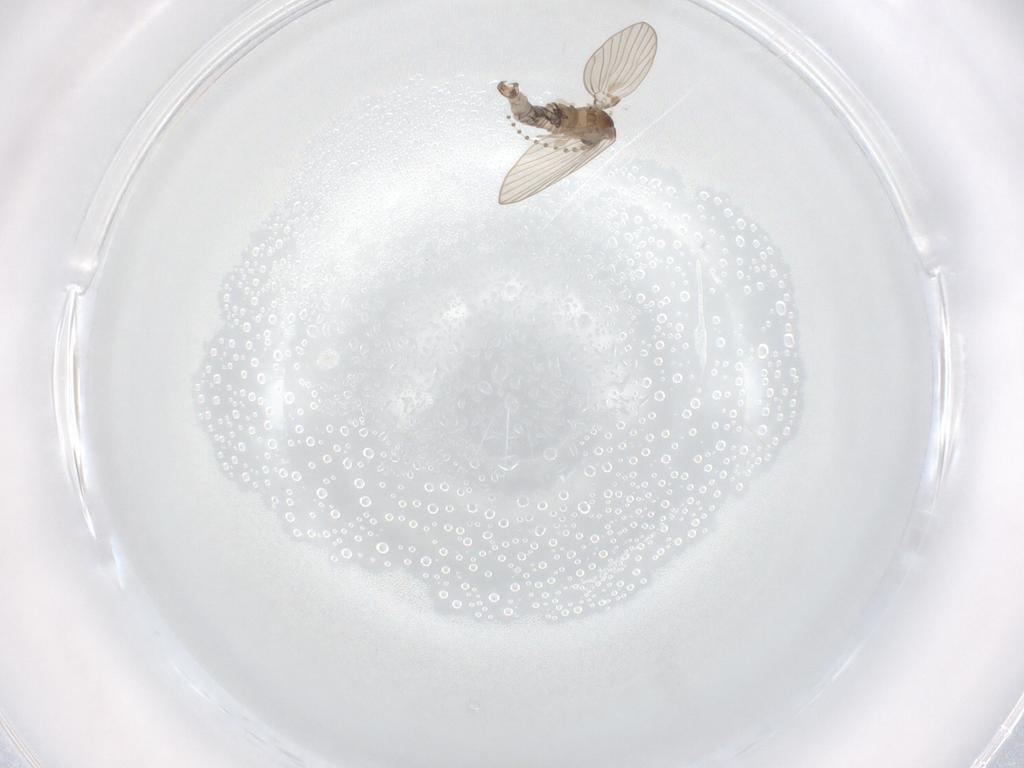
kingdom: Animalia
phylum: Arthropoda
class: Insecta
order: Diptera
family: Psychodidae
